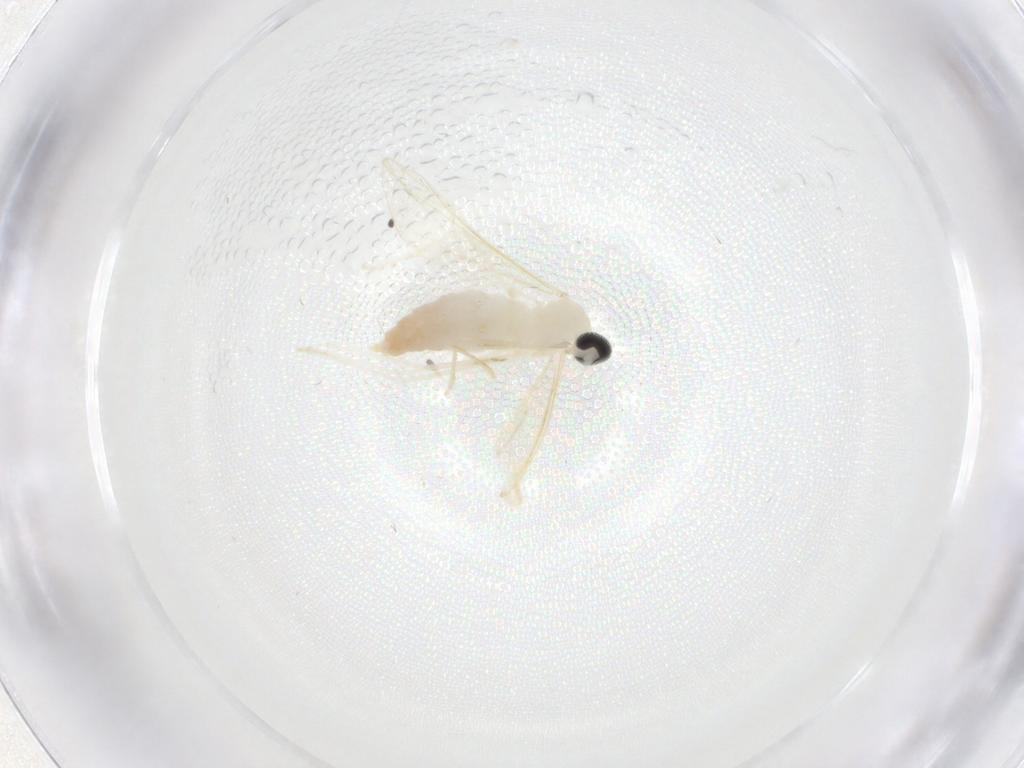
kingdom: Animalia
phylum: Arthropoda
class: Insecta
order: Diptera
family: Cecidomyiidae
